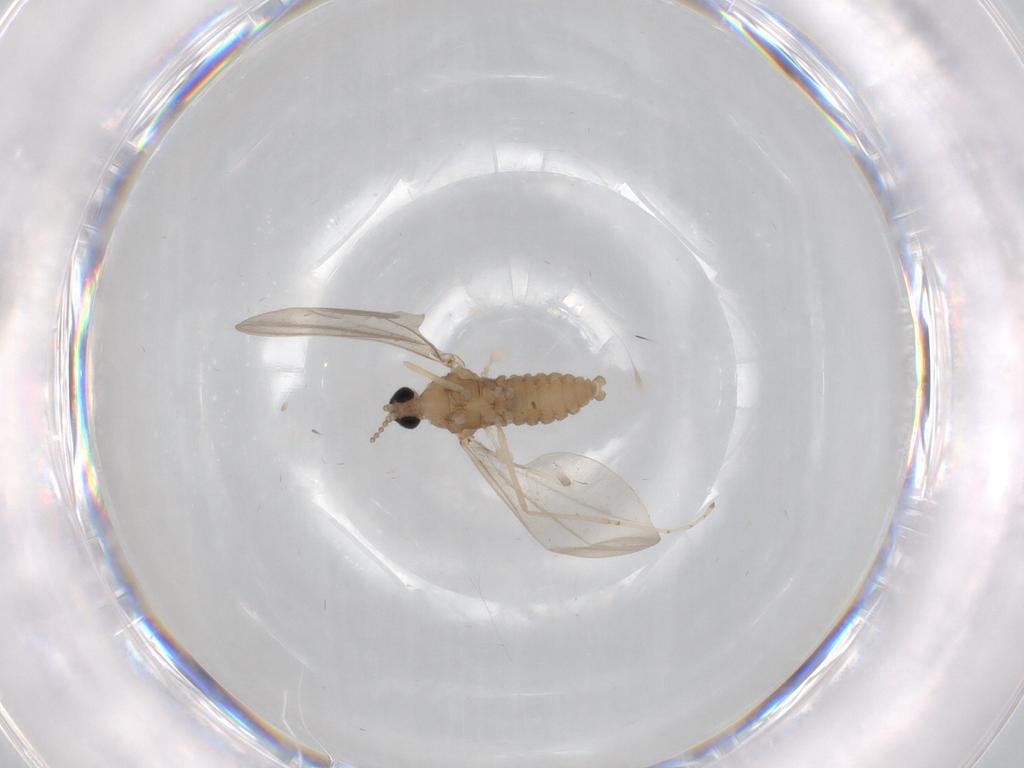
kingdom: Animalia
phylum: Arthropoda
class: Insecta
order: Diptera
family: Cecidomyiidae
